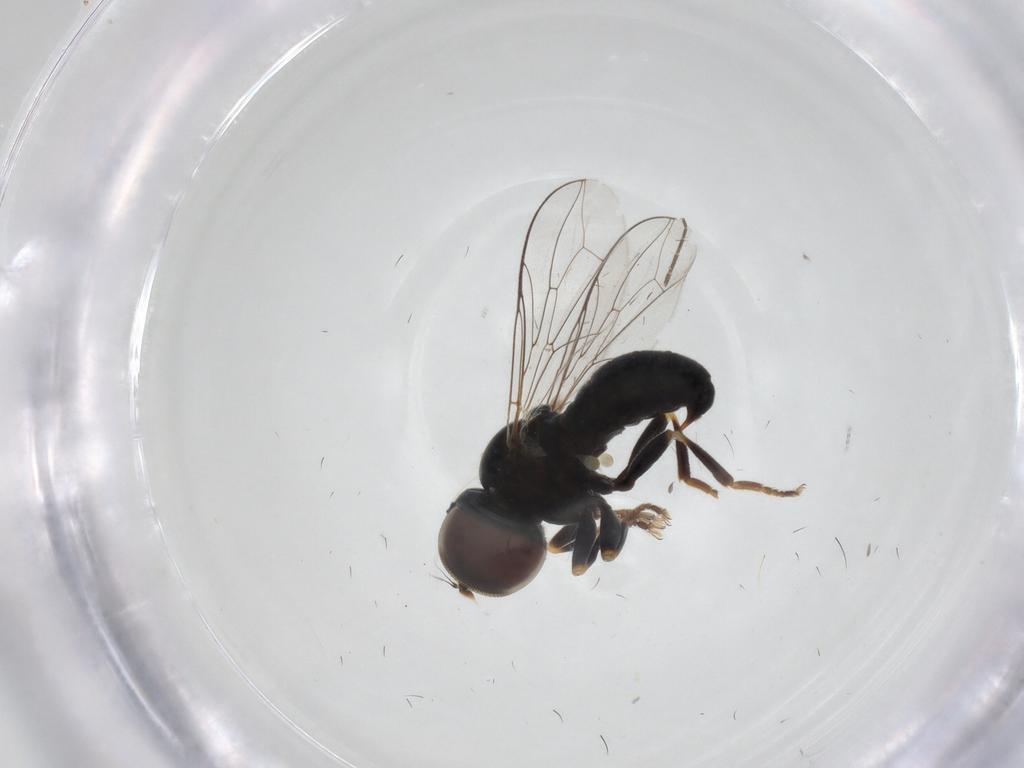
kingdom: Animalia
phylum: Arthropoda
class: Insecta
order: Diptera
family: Pipunculidae
